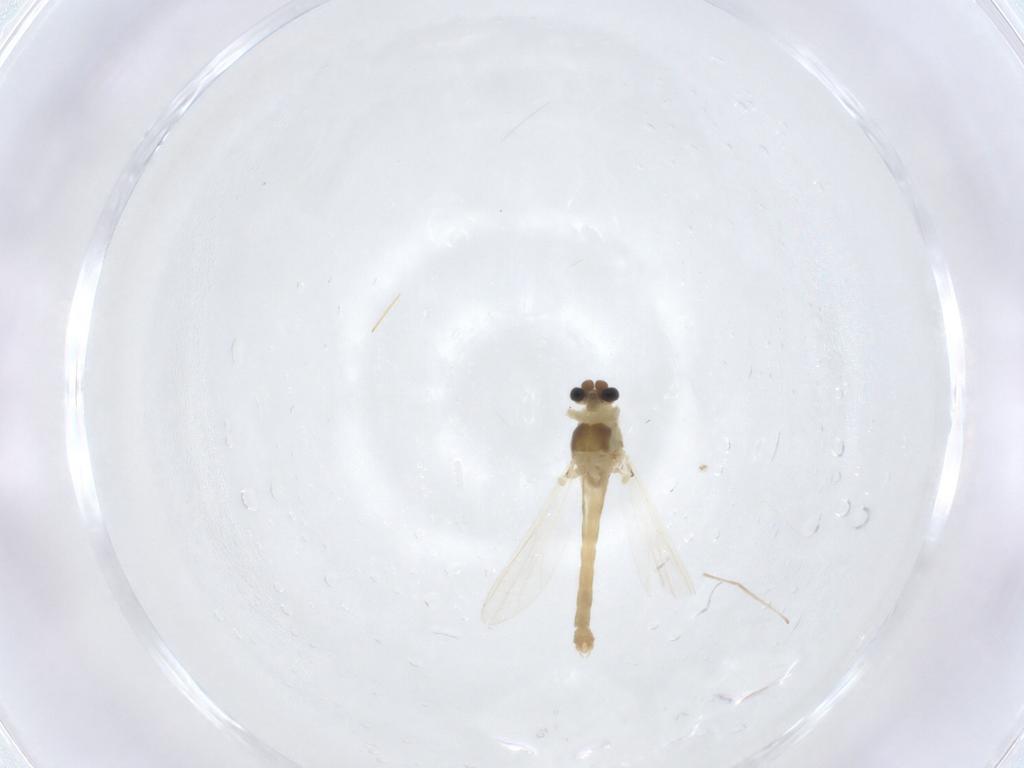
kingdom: Animalia
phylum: Arthropoda
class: Insecta
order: Diptera
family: Chironomidae
